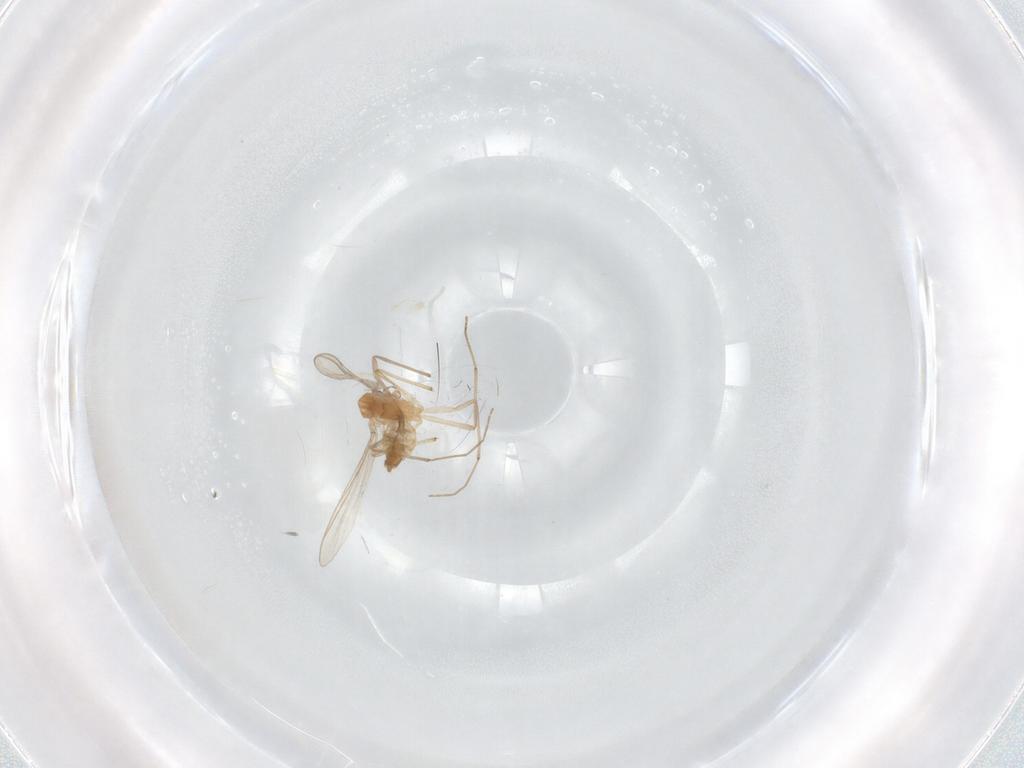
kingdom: Animalia
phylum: Arthropoda
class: Insecta
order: Diptera
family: Chironomidae
